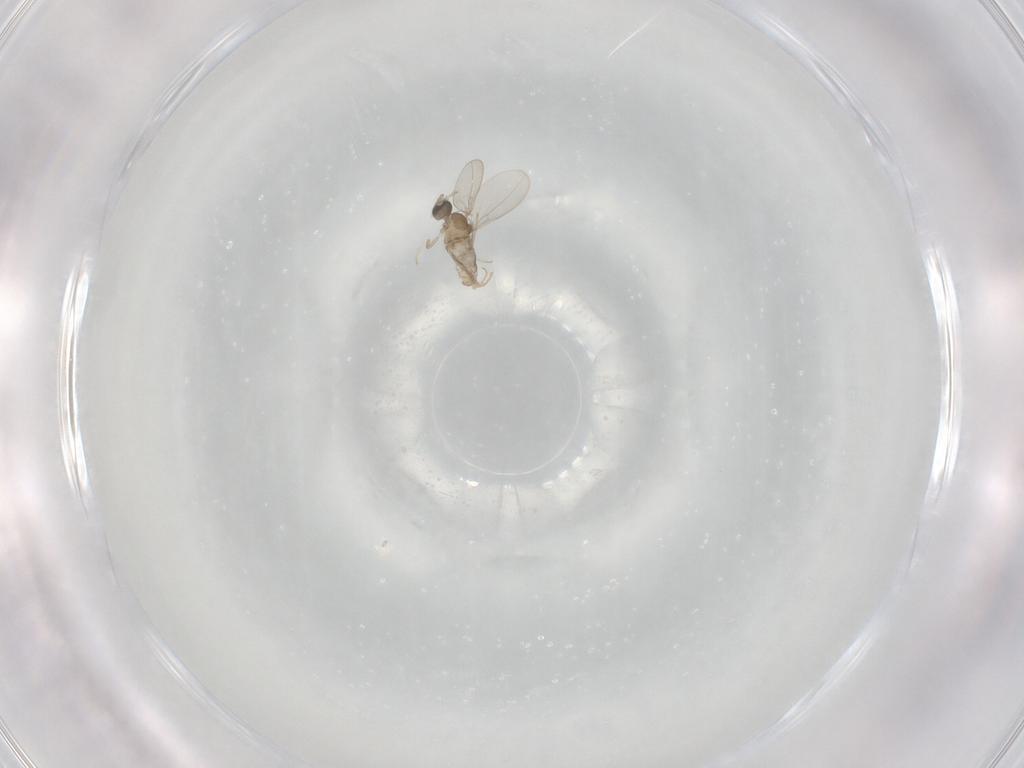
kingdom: Animalia
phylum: Arthropoda
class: Insecta
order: Diptera
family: Cecidomyiidae
